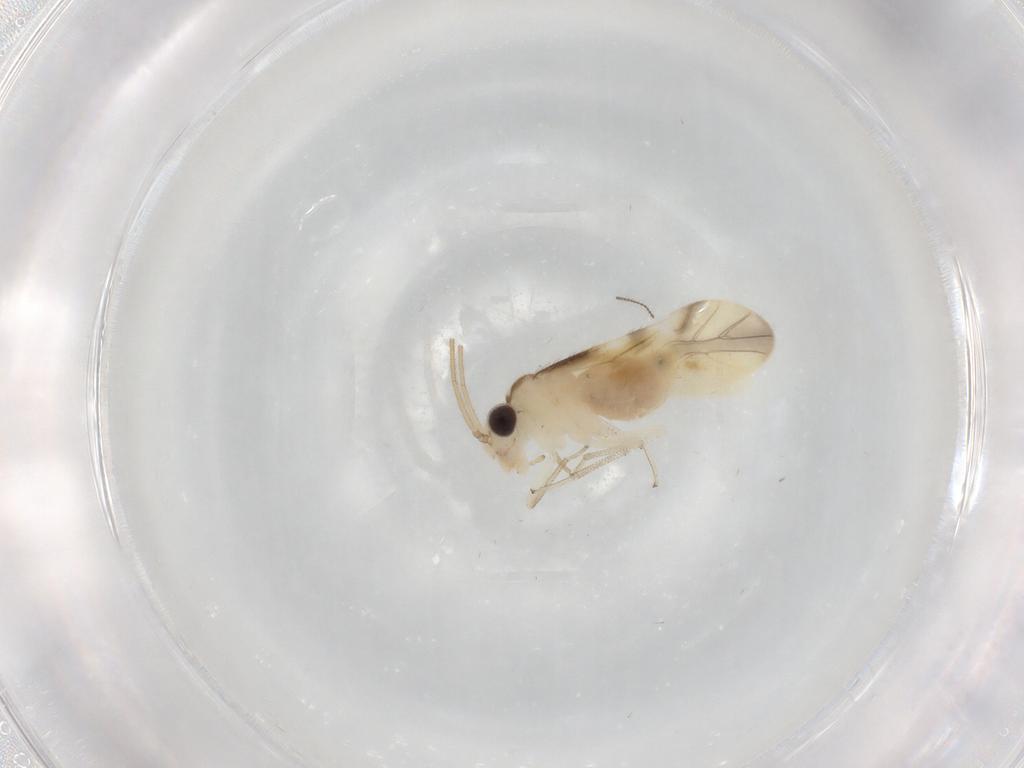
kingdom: Animalia
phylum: Arthropoda
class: Insecta
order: Psocodea
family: Caeciliusidae
